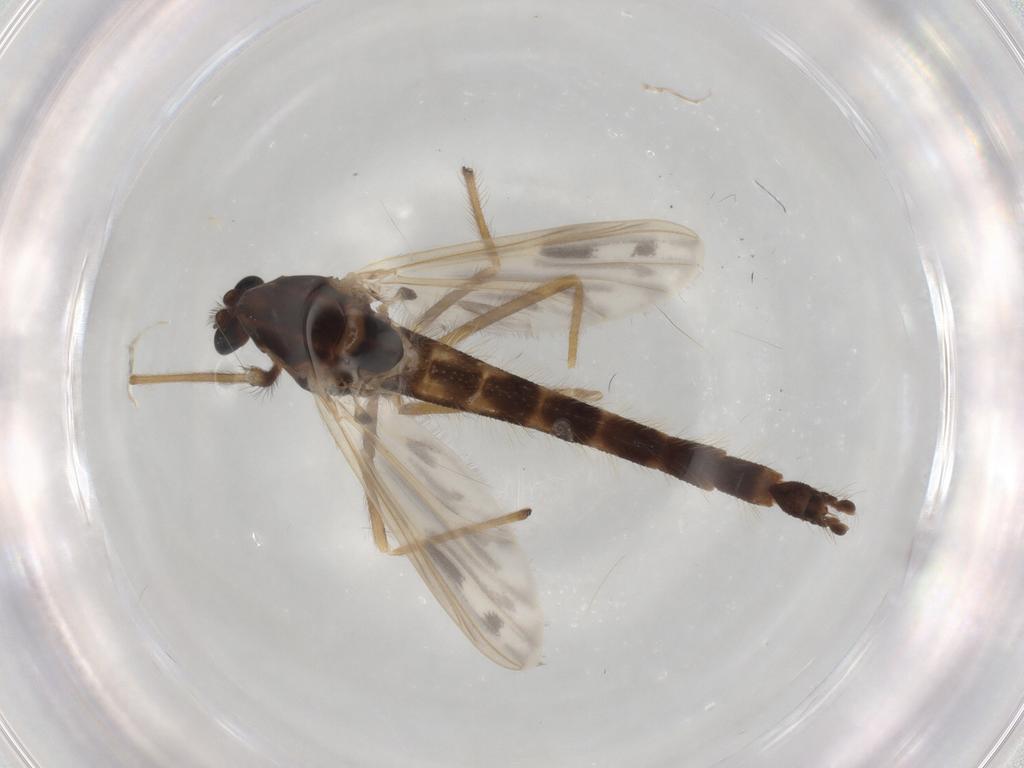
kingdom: Animalia
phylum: Arthropoda
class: Insecta
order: Diptera
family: Chironomidae
